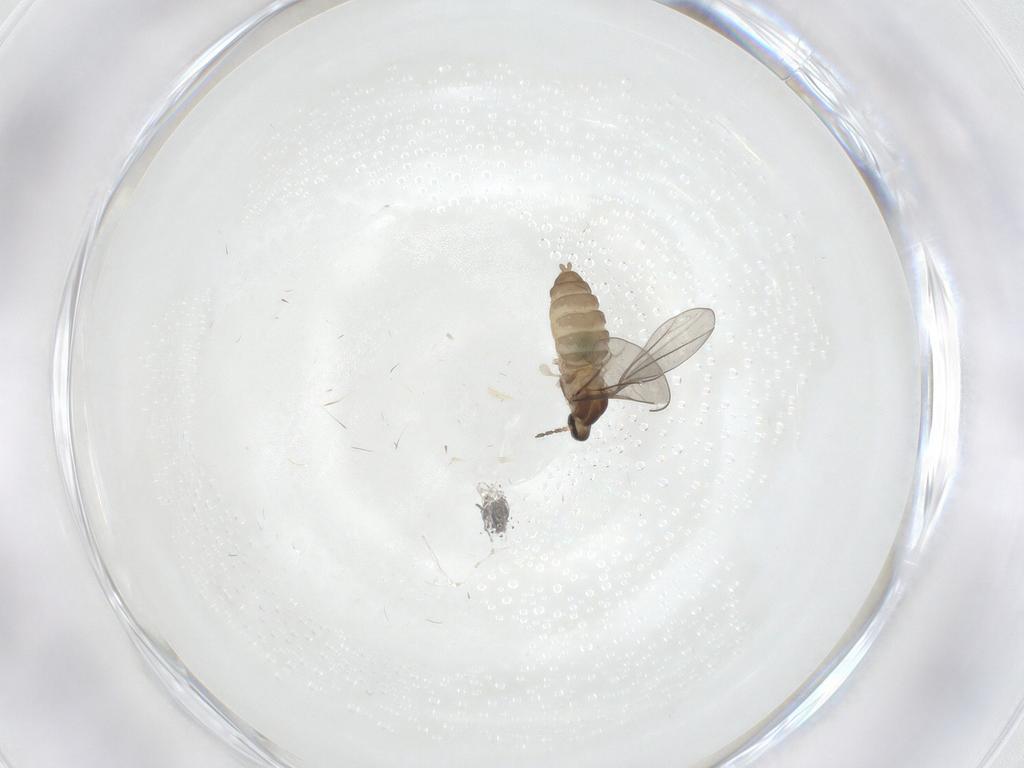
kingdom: Animalia
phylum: Arthropoda
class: Insecta
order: Diptera
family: Cecidomyiidae
